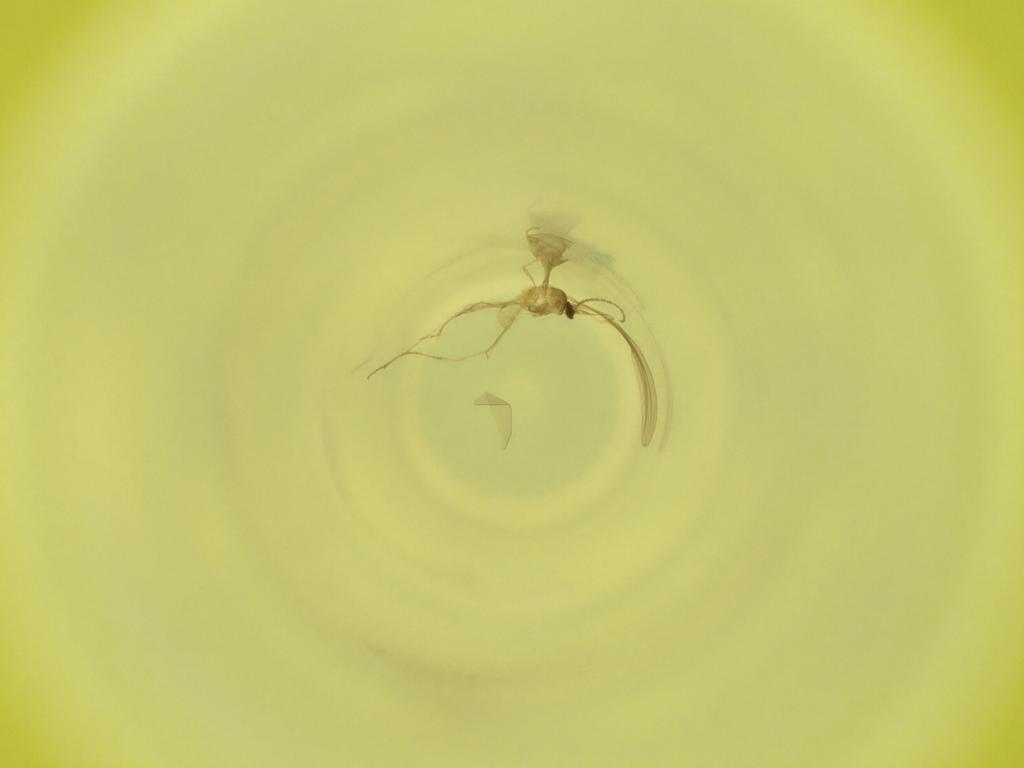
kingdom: Animalia
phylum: Arthropoda
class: Insecta
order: Diptera
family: Cecidomyiidae
